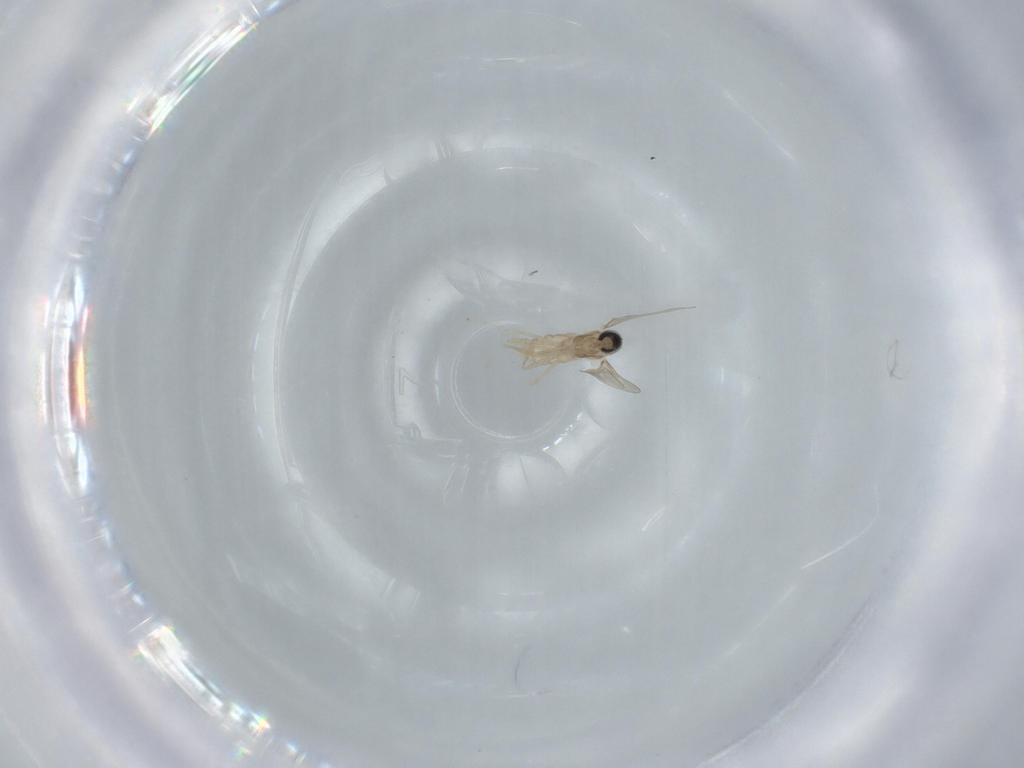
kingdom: Animalia
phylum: Arthropoda
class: Insecta
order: Diptera
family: Cecidomyiidae
